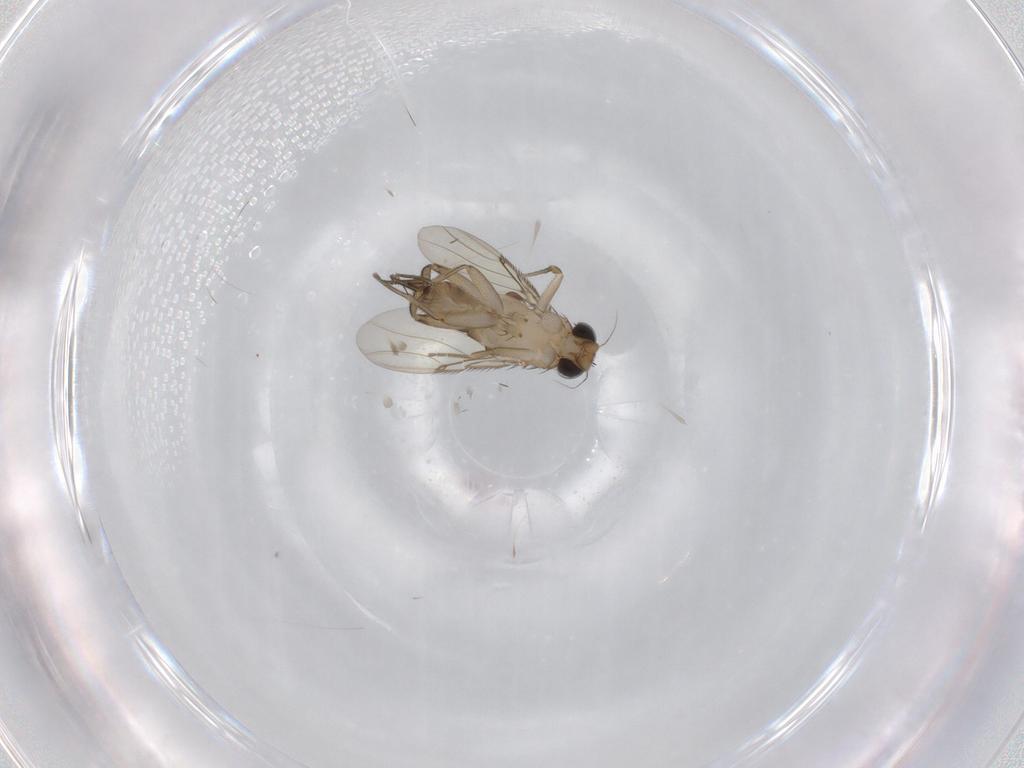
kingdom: Animalia
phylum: Arthropoda
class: Insecta
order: Diptera
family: Phoridae
